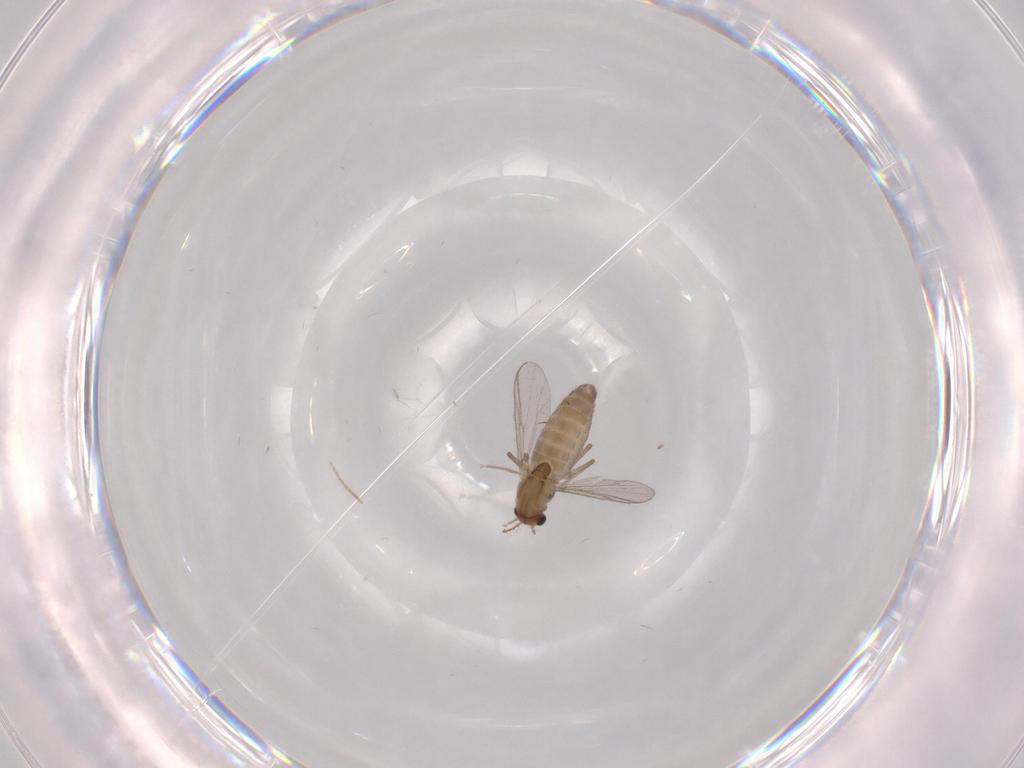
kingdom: Animalia
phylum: Arthropoda
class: Insecta
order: Diptera
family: Chironomidae
